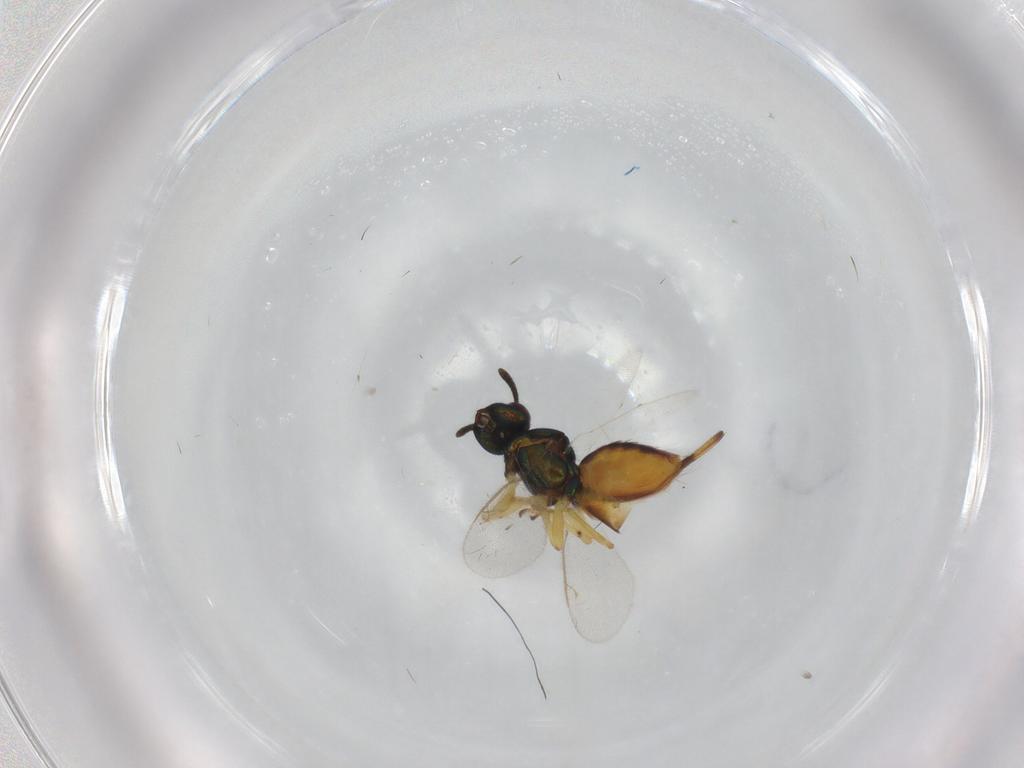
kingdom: Animalia
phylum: Arthropoda
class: Insecta
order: Hymenoptera
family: Eupelmidae
